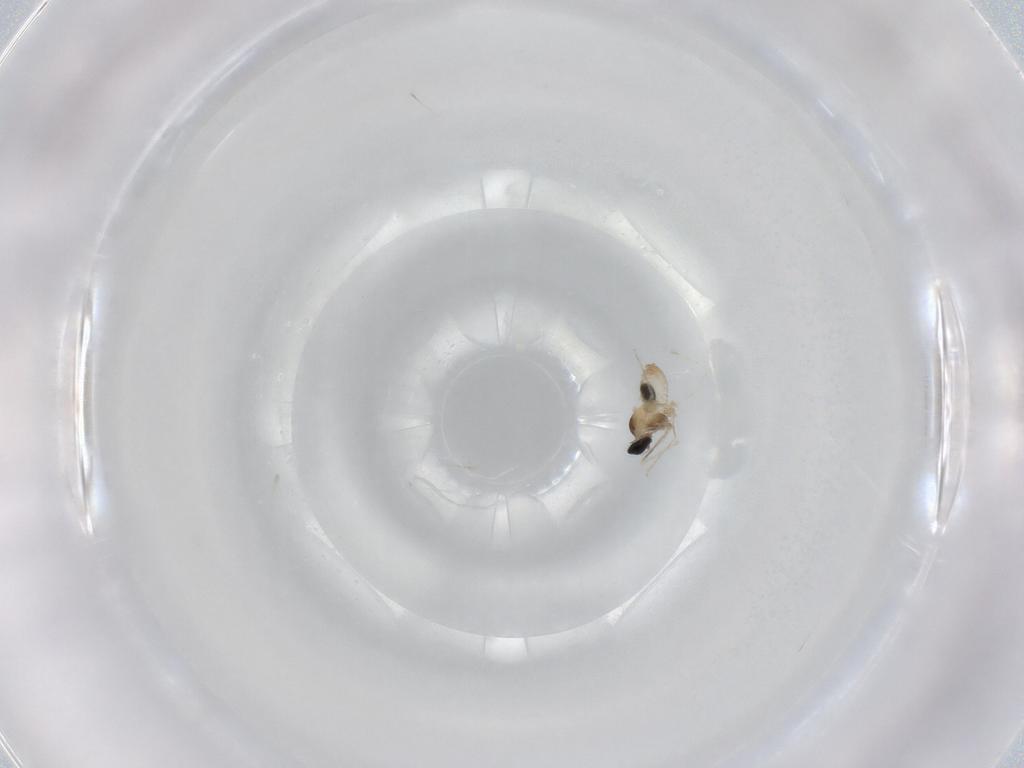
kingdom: Animalia
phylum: Arthropoda
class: Insecta
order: Diptera
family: Cecidomyiidae
